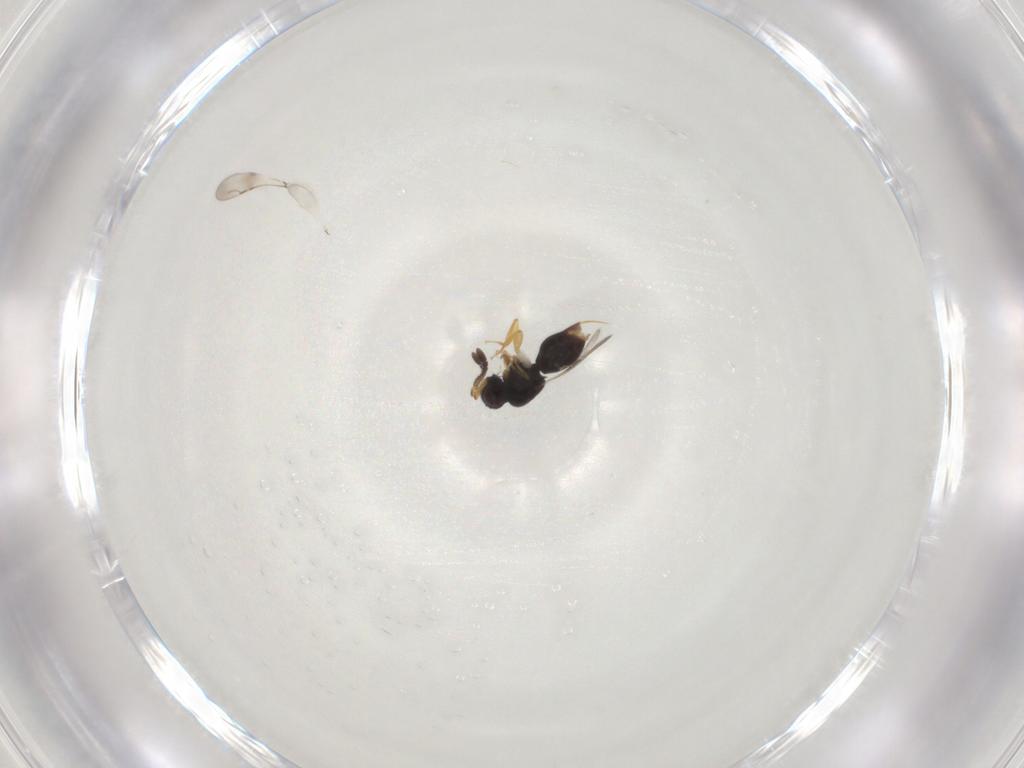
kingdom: Animalia
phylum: Arthropoda
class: Insecta
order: Hymenoptera
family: Ceraphronidae
